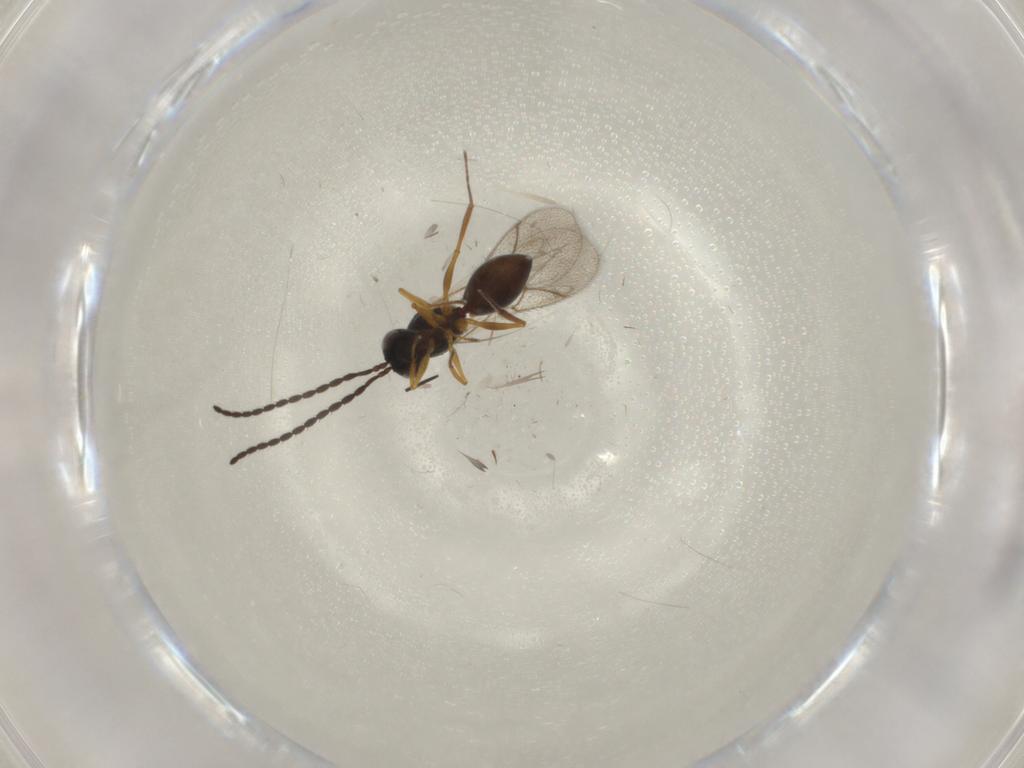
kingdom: Animalia
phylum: Arthropoda
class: Insecta
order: Hymenoptera
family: Figitidae
